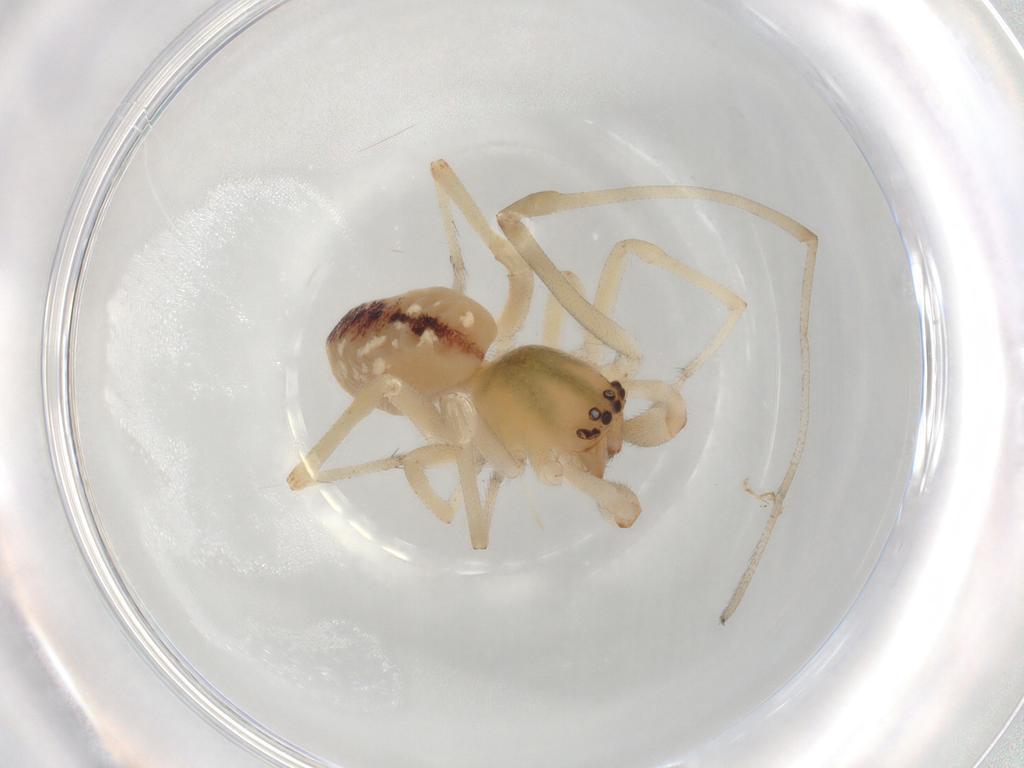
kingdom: Animalia
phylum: Arthropoda
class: Arachnida
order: Araneae
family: Cheiracanthiidae
